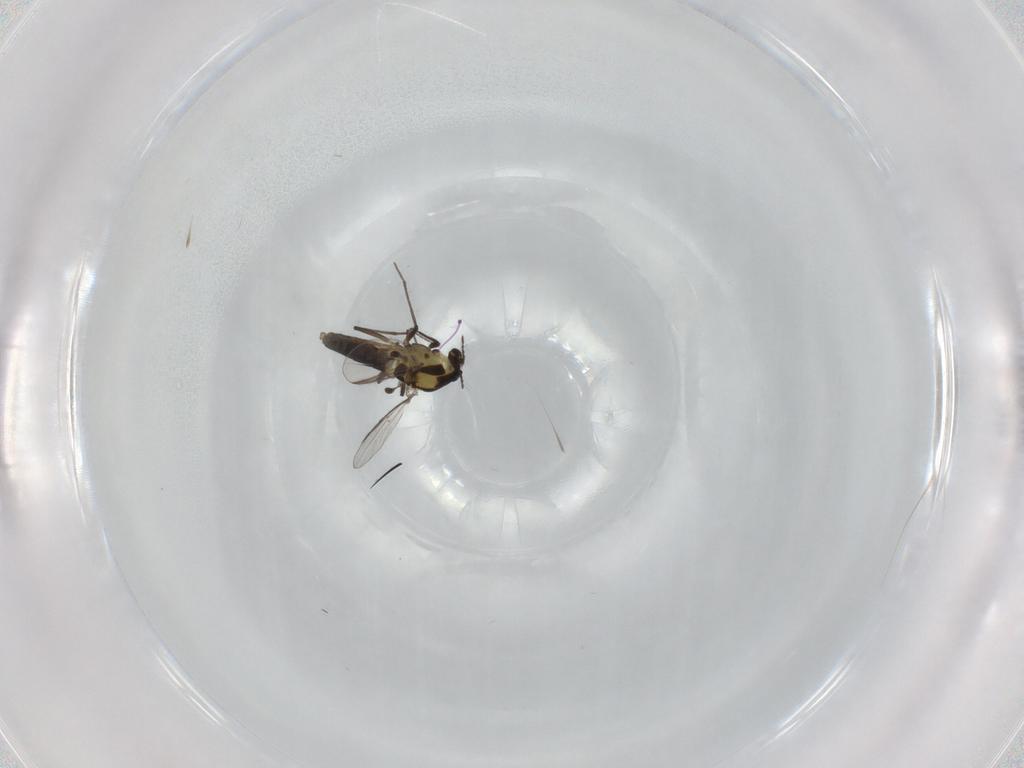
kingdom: Animalia
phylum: Arthropoda
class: Insecta
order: Diptera
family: Chironomidae
